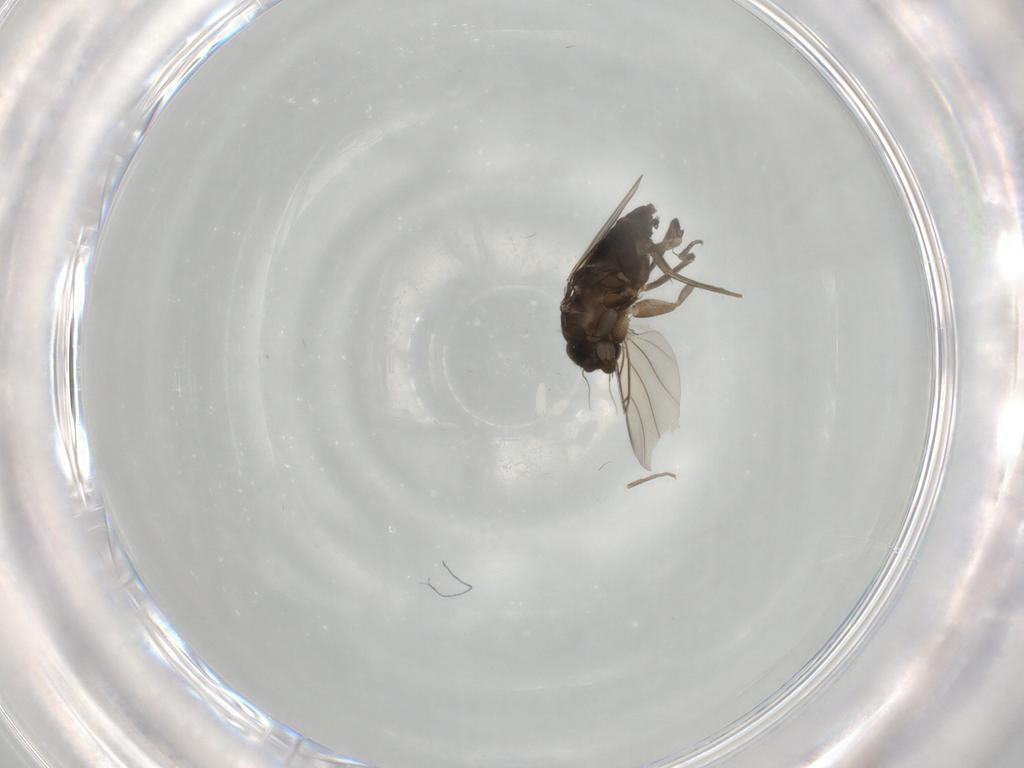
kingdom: Animalia
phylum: Arthropoda
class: Insecta
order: Diptera
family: Phoridae
